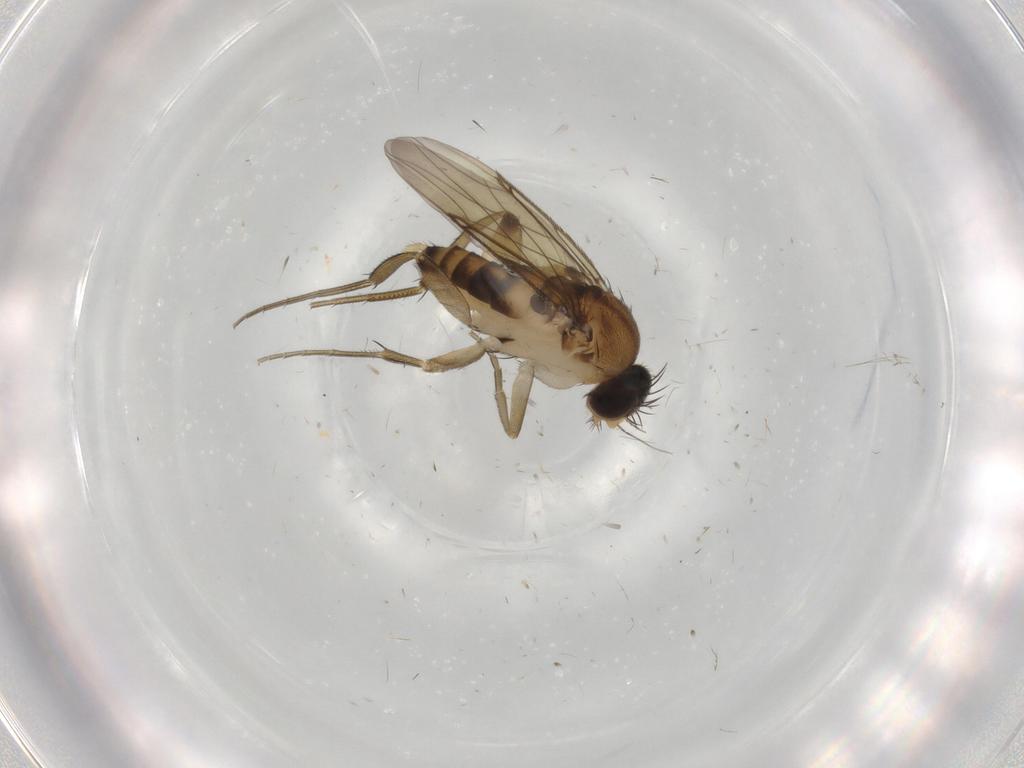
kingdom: Animalia
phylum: Arthropoda
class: Insecta
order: Diptera
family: Phoridae
